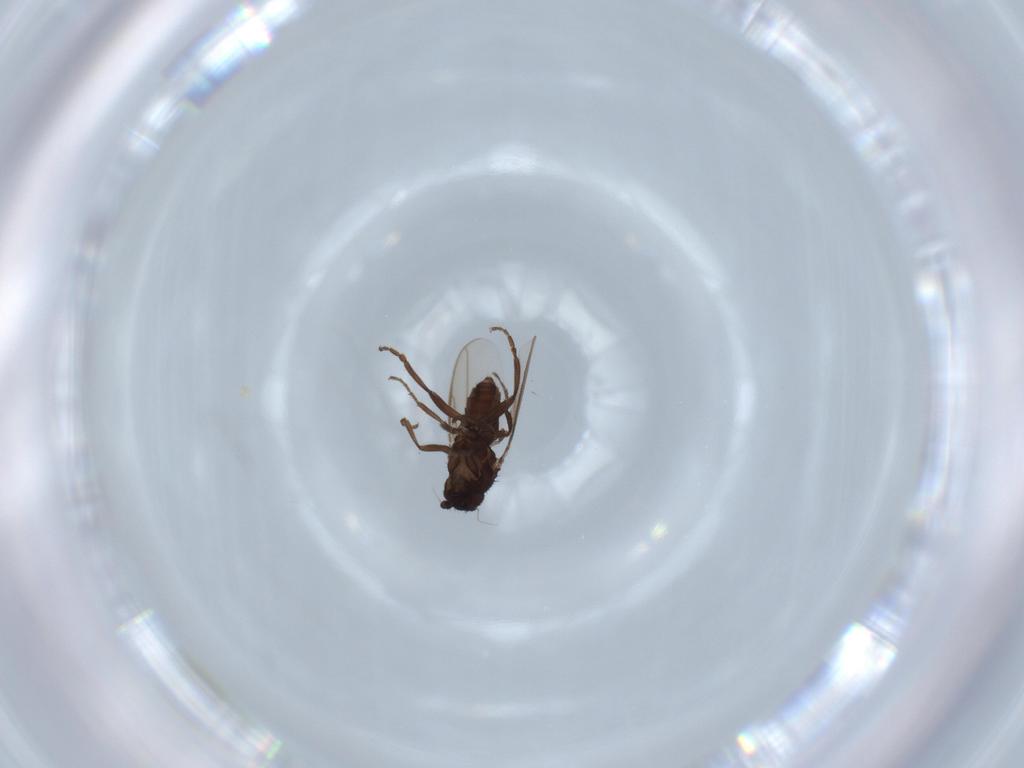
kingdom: Animalia
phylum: Arthropoda
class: Insecta
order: Diptera
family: Sphaeroceridae
